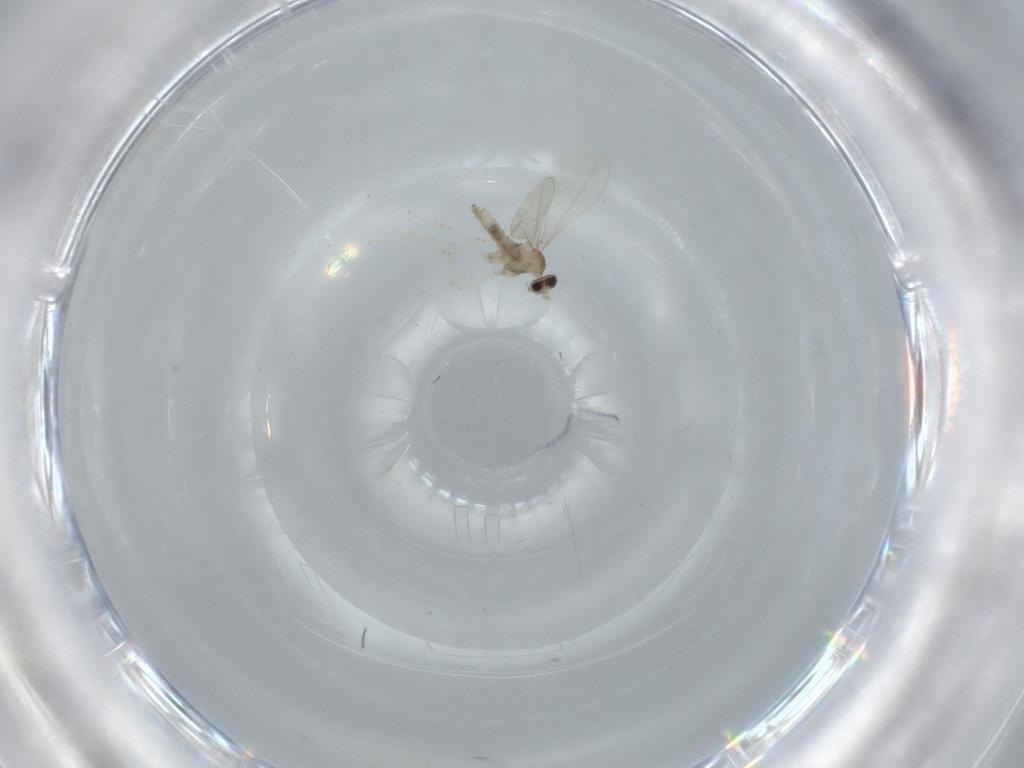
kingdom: Animalia
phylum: Arthropoda
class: Insecta
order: Diptera
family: Cecidomyiidae
